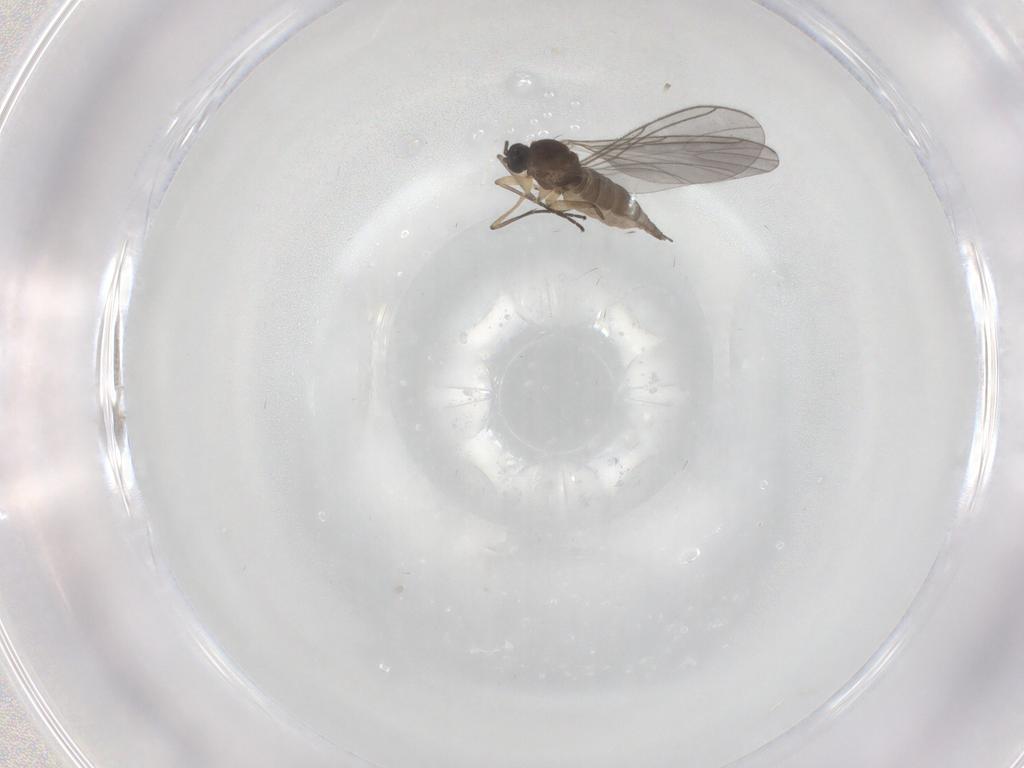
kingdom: Animalia
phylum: Arthropoda
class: Insecta
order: Diptera
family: Sciaridae
